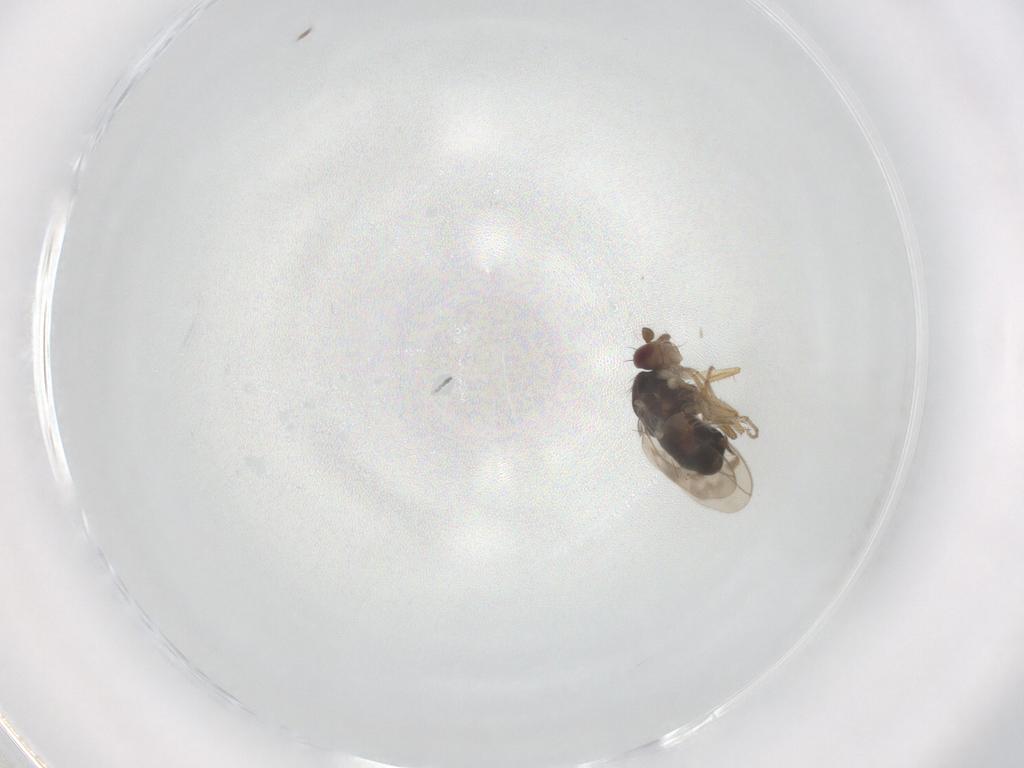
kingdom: Animalia
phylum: Arthropoda
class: Insecta
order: Diptera
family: Sphaeroceridae
